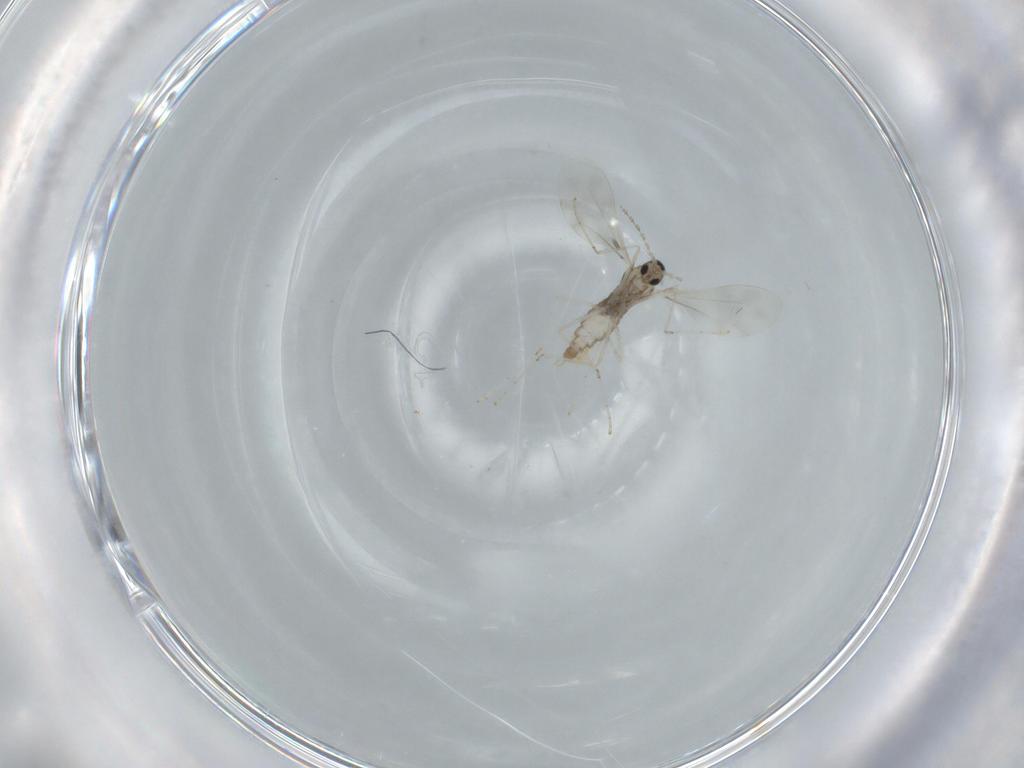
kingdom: Animalia
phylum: Arthropoda
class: Insecta
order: Diptera
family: Cecidomyiidae
